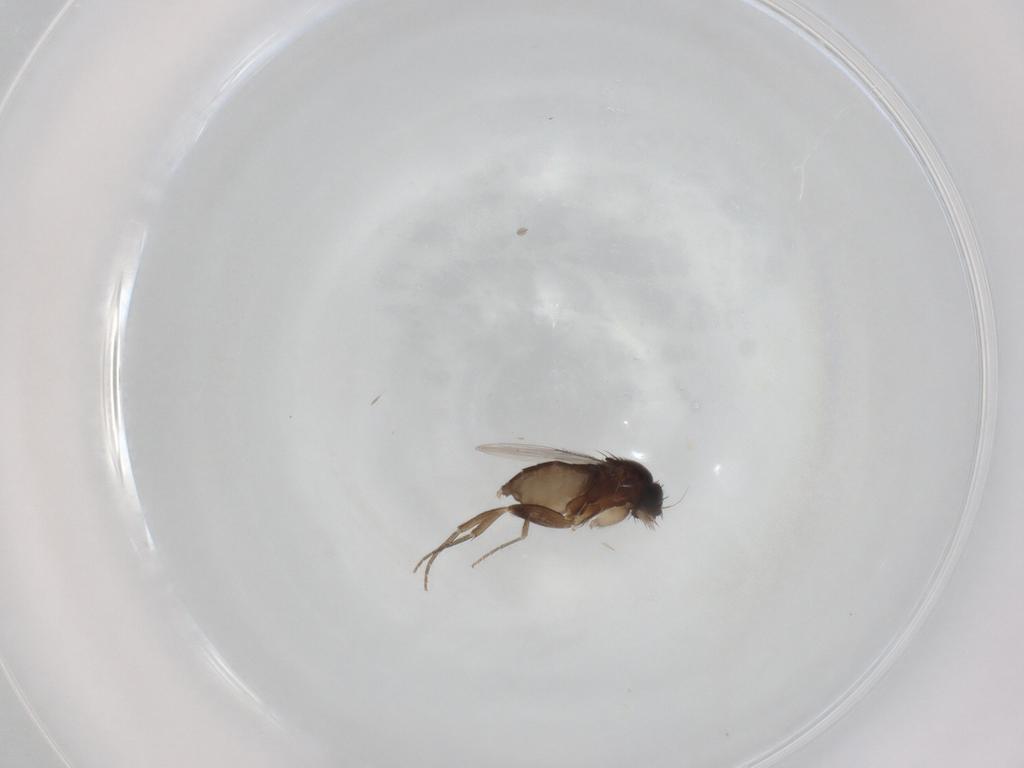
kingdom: Animalia
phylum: Arthropoda
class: Insecta
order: Diptera
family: Phoridae
